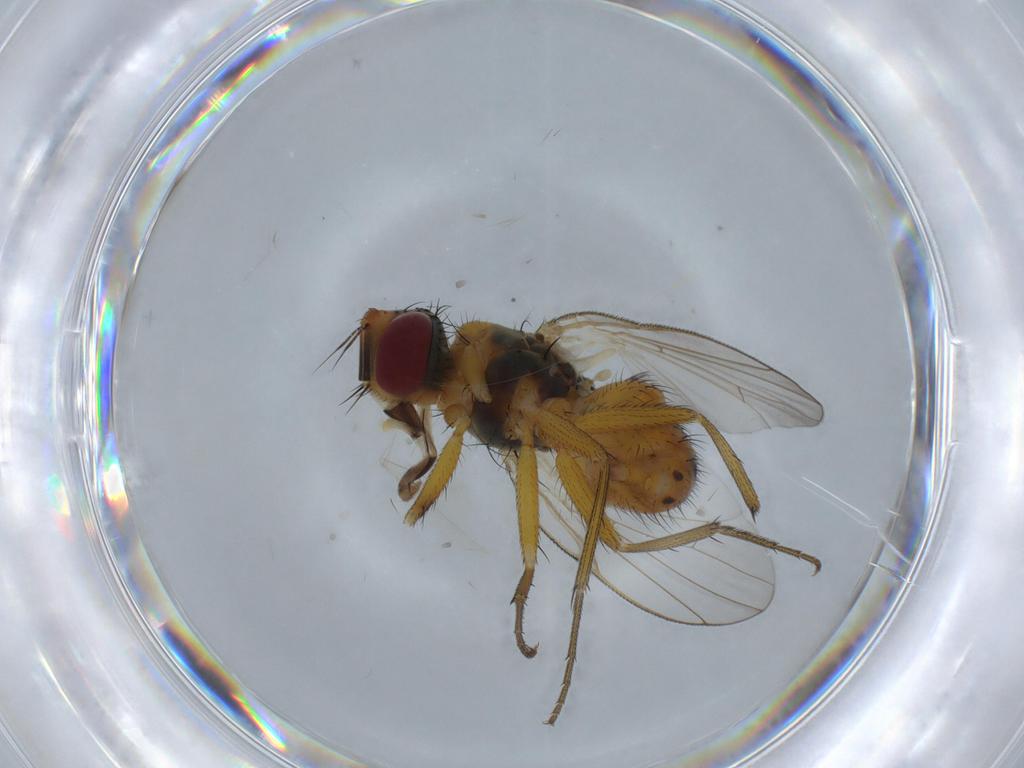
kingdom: Animalia
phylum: Arthropoda
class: Insecta
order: Diptera
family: Muscidae
